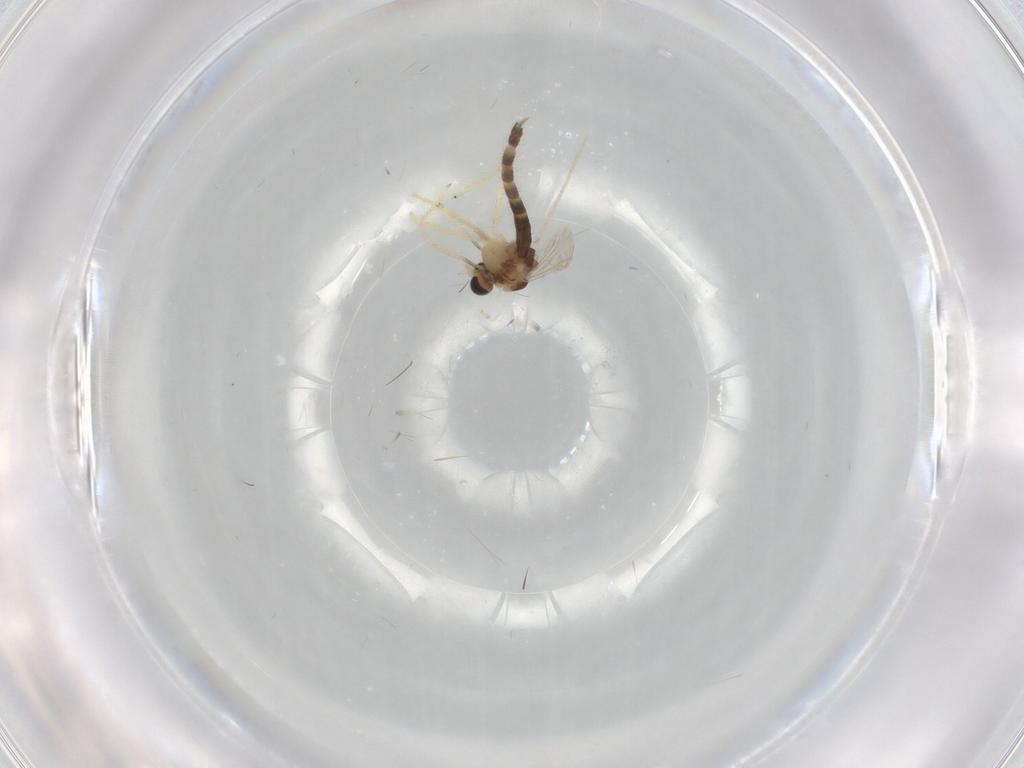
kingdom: Animalia
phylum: Arthropoda
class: Insecta
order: Diptera
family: Chironomidae
